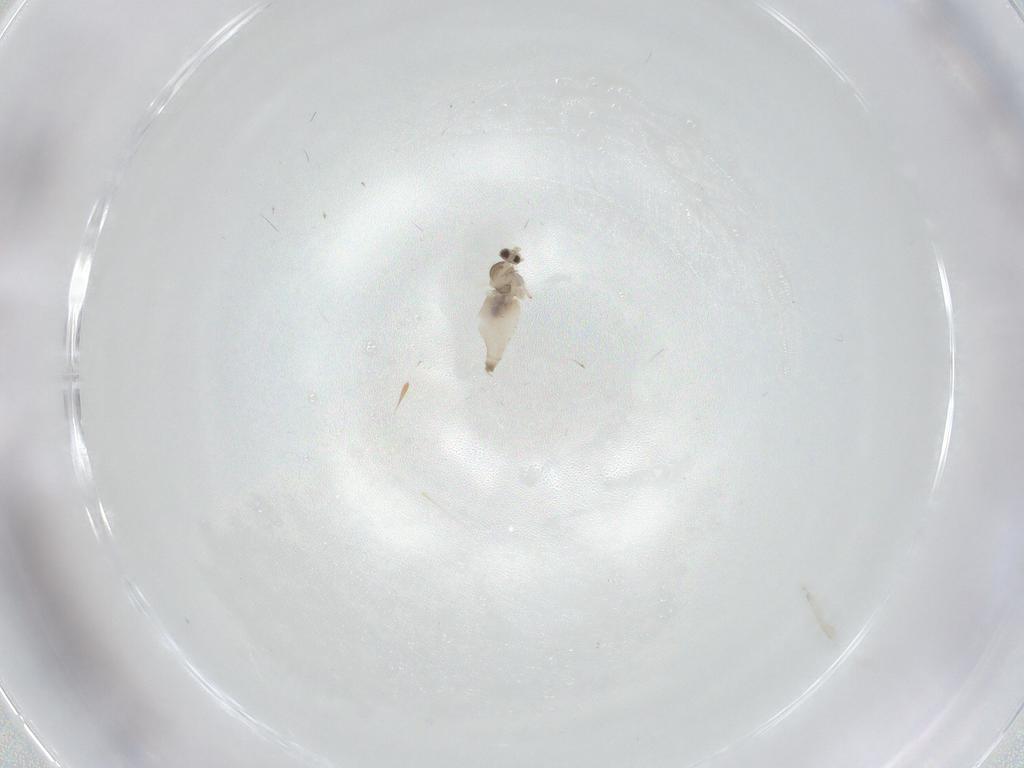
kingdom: Animalia
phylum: Arthropoda
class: Insecta
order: Diptera
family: Cecidomyiidae
